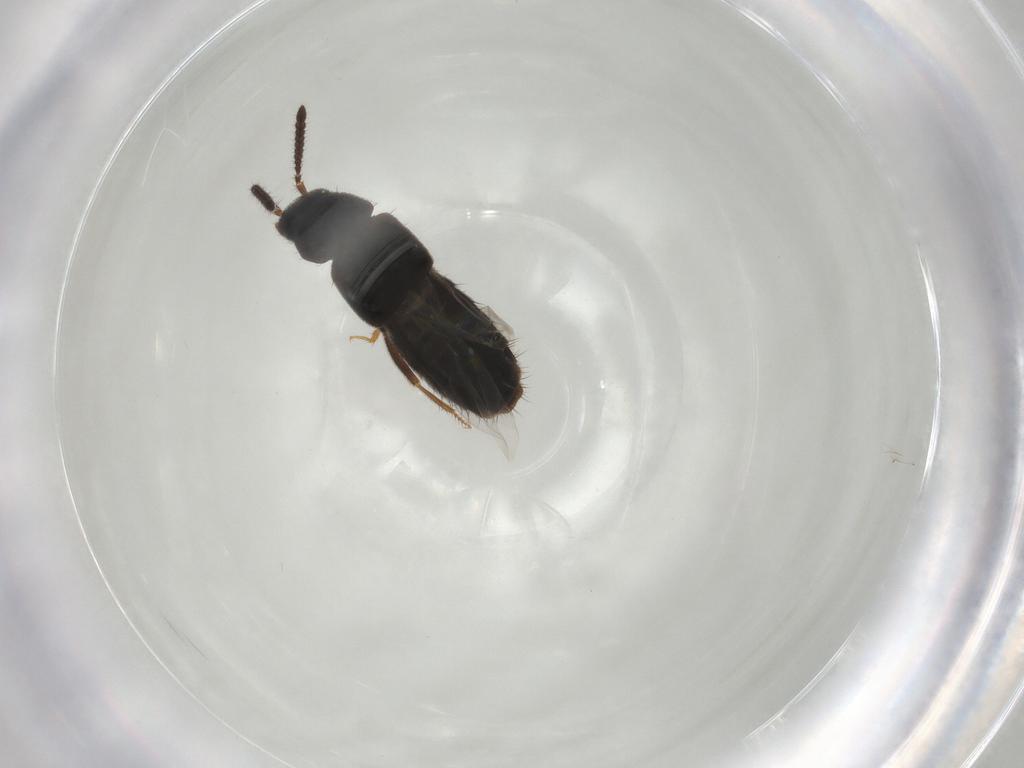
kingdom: Animalia
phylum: Arthropoda
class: Insecta
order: Coleoptera
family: Staphylinidae
